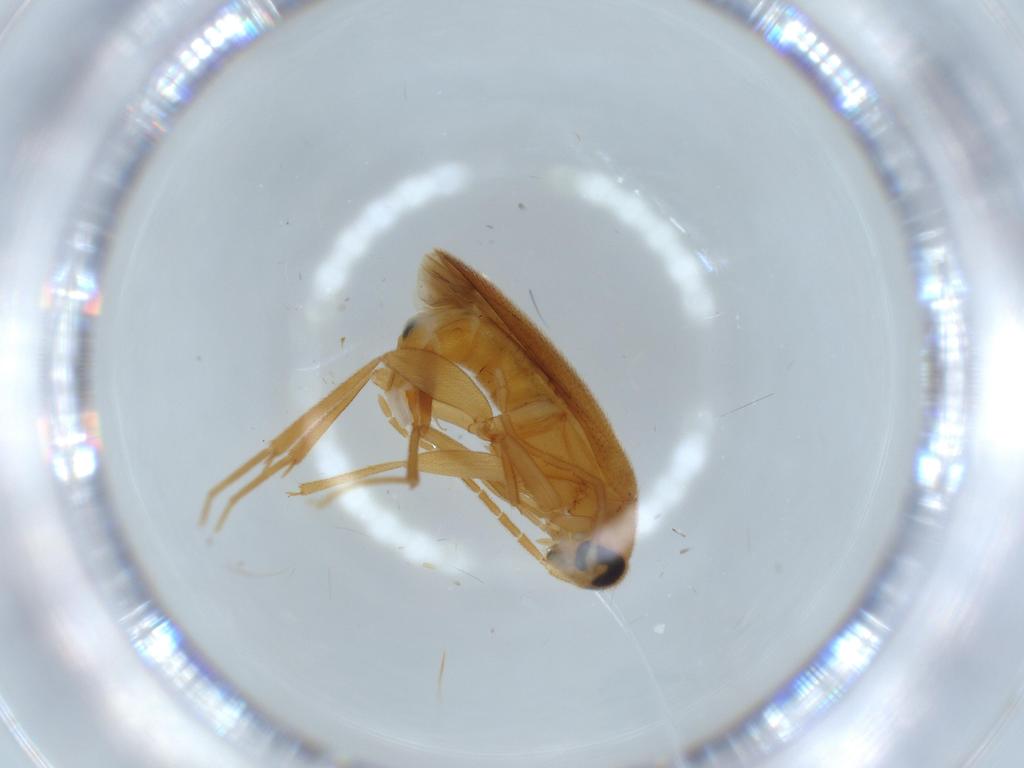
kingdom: Animalia
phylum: Arthropoda
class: Insecta
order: Coleoptera
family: Scraptiidae
